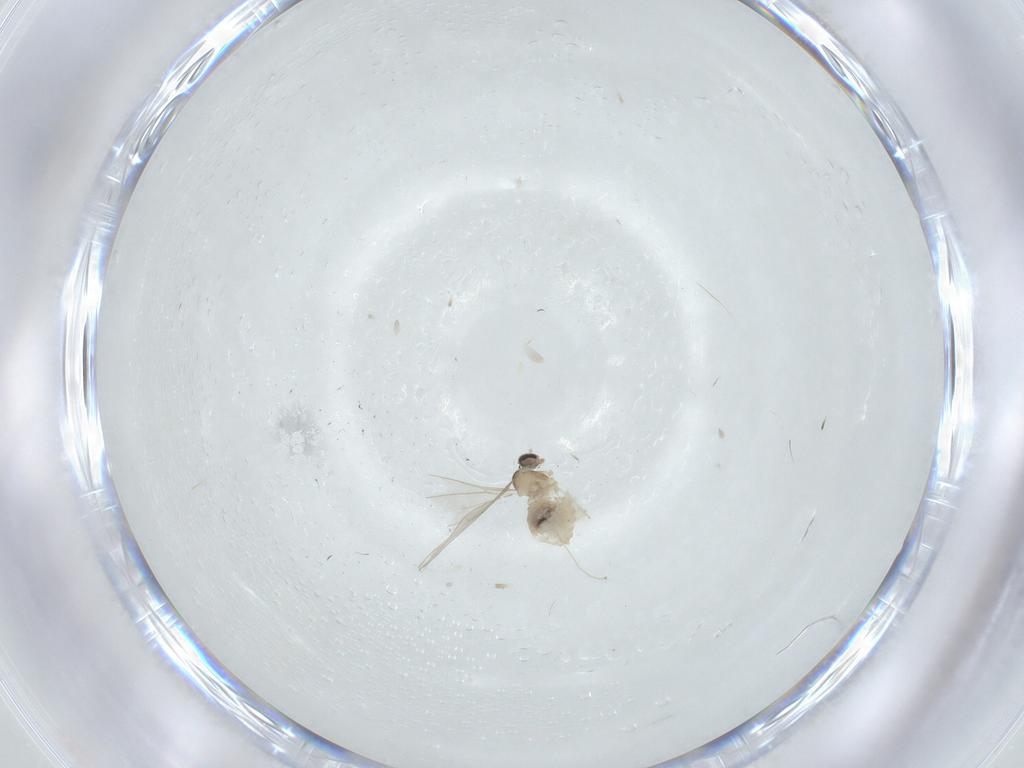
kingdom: Animalia
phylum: Arthropoda
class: Insecta
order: Diptera
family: Cecidomyiidae
